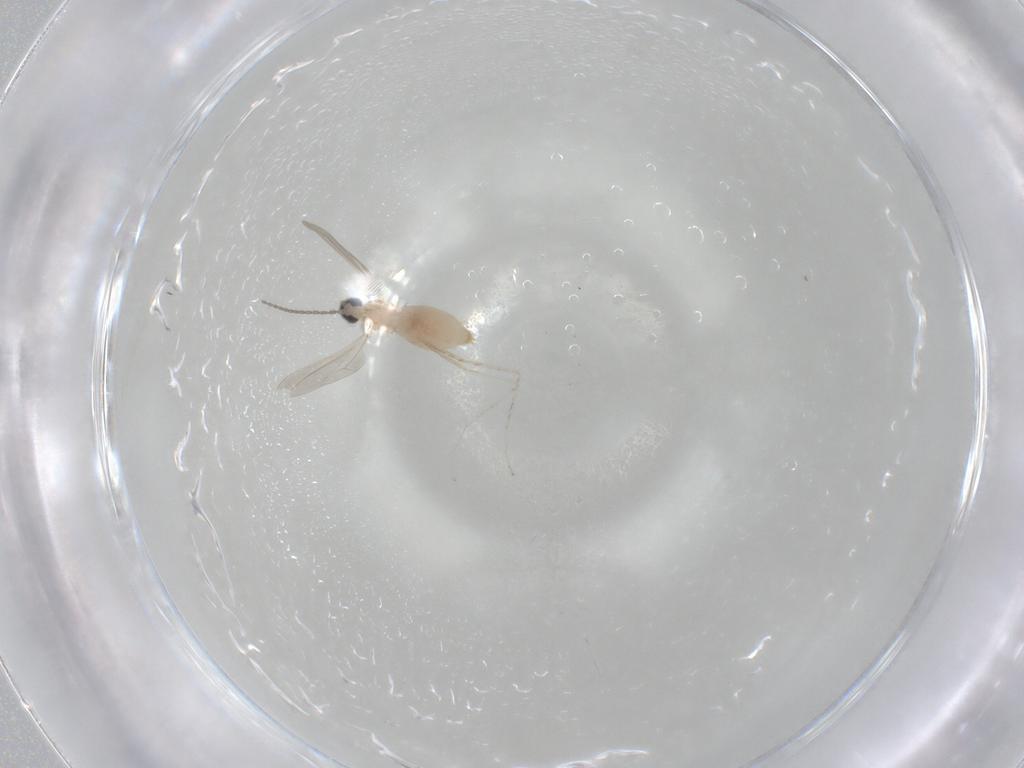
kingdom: Animalia
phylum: Arthropoda
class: Insecta
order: Diptera
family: Cecidomyiidae
